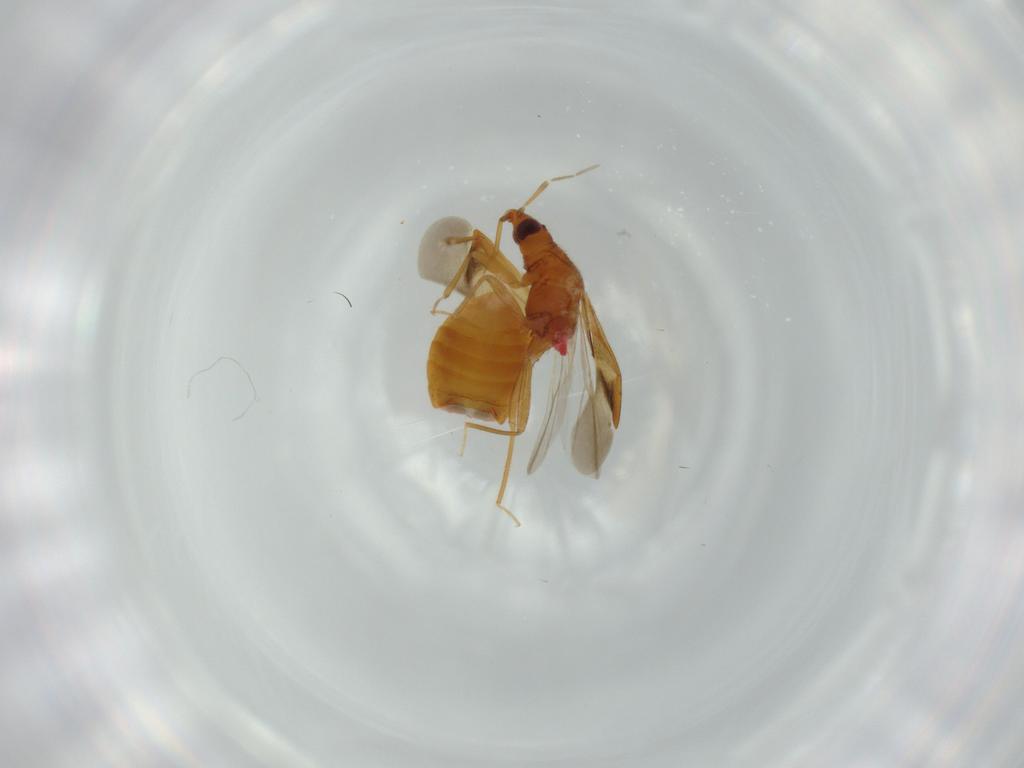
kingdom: Animalia
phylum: Arthropoda
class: Insecta
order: Hemiptera
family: Anthocoridae
